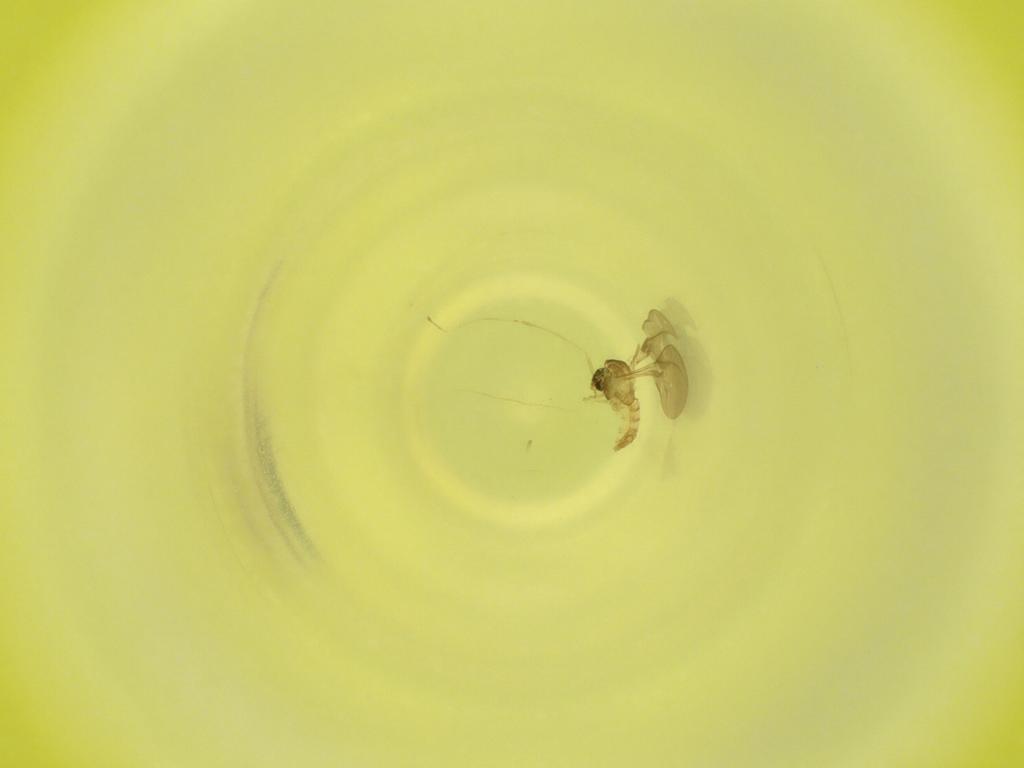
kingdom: Animalia
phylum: Arthropoda
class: Insecta
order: Diptera
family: Cecidomyiidae
